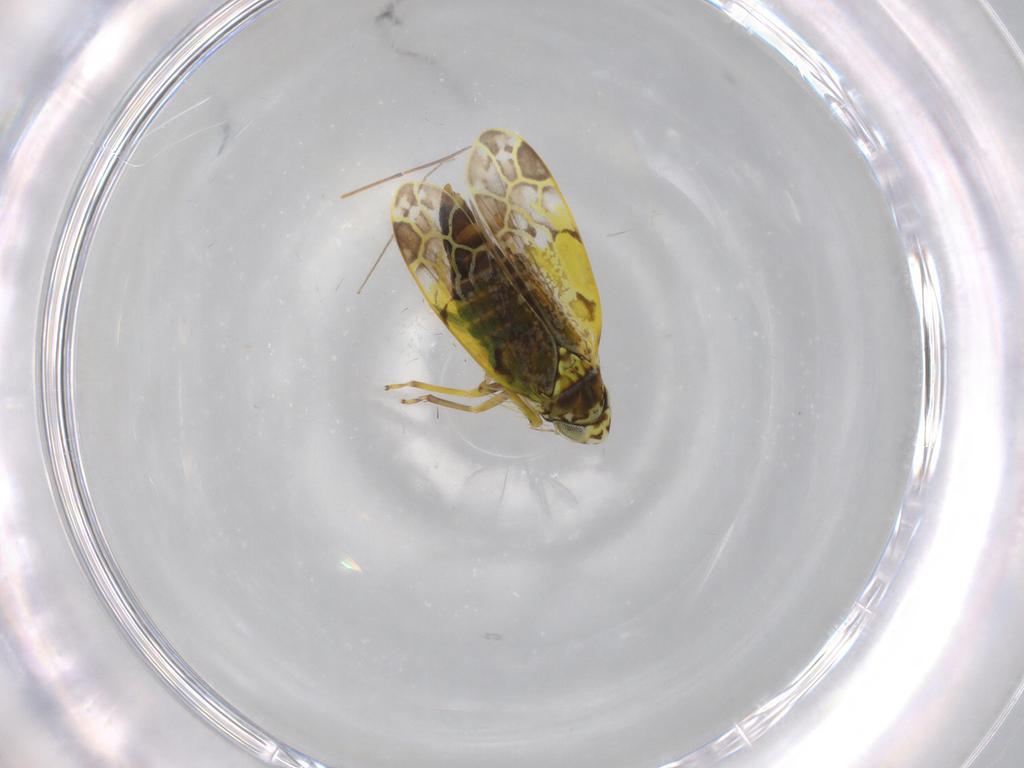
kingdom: Animalia
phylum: Arthropoda
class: Insecta
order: Hemiptera
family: Cicadellidae
